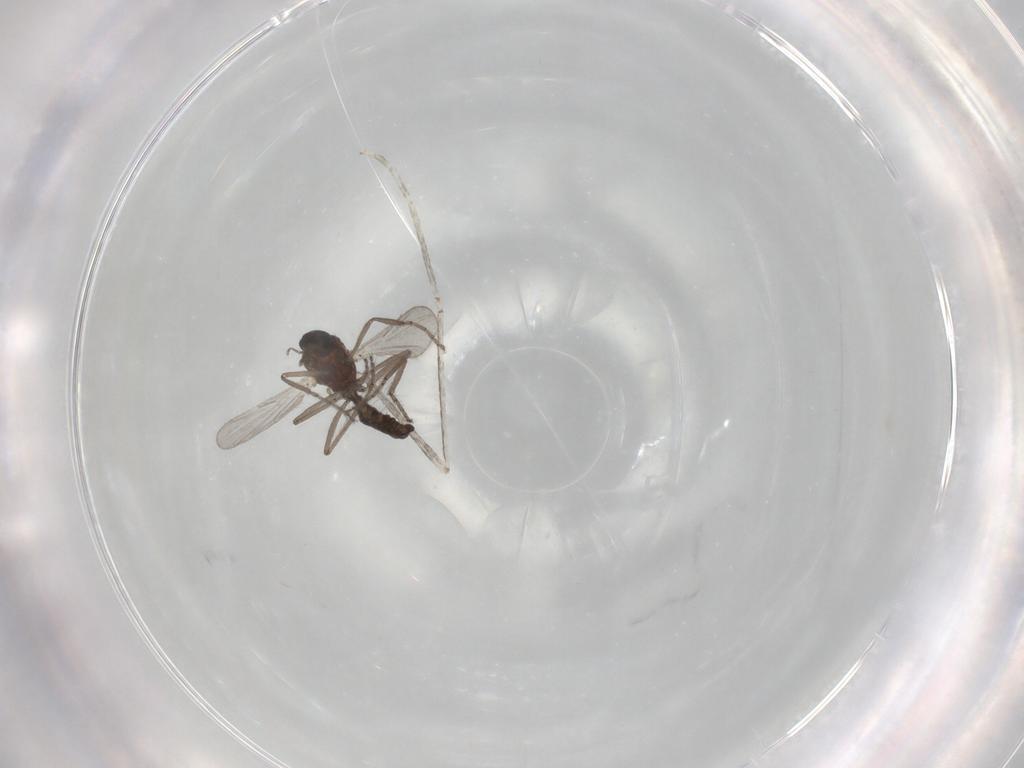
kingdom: Animalia
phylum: Arthropoda
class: Insecta
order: Diptera
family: Ceratopogonidae
